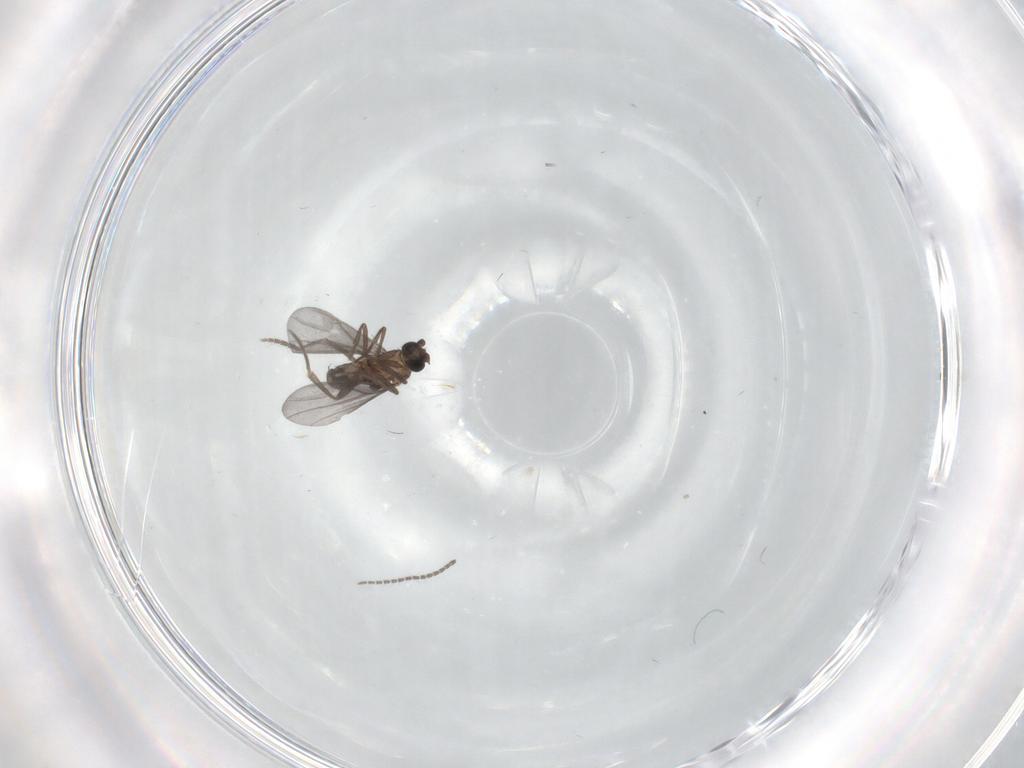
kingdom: Animalia
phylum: Arthropoda
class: Insecta
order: Diptera
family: Phoridae
